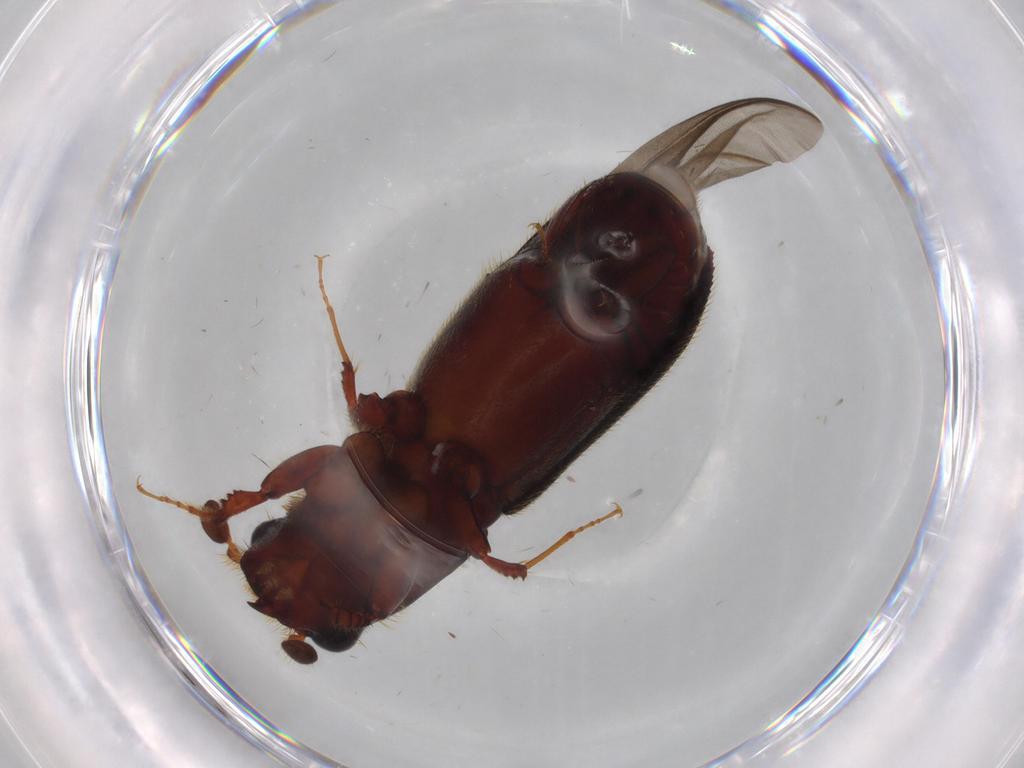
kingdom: Animalia
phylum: Arthropoda
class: Insecta
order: Coleoptera
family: Curculionidae
